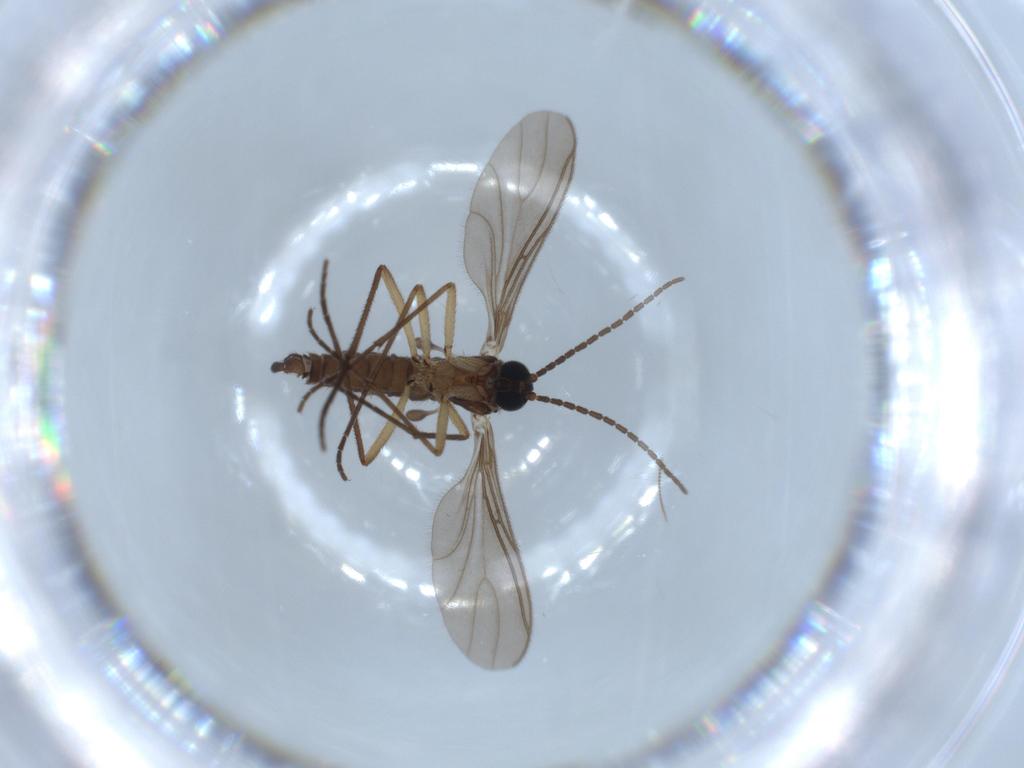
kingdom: Animalia
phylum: Arthropoda
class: Insecta
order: Diptera
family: Sciaridae
